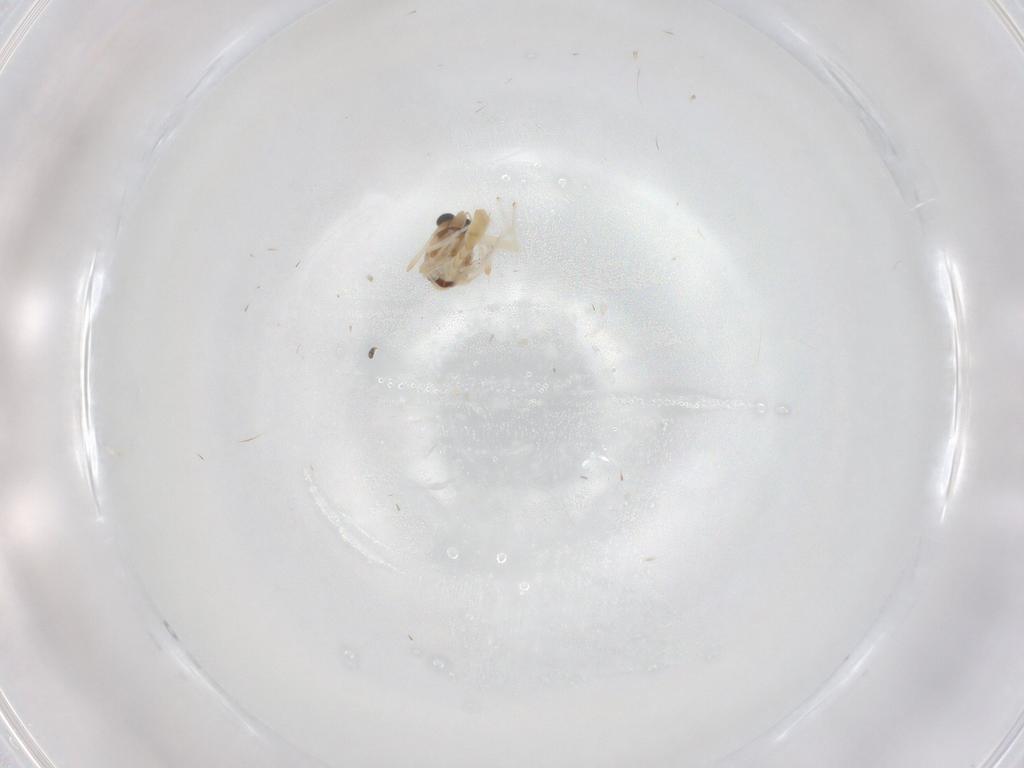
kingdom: Animalia
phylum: Arthropoda
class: Insecta
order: Diptera
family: Chironomidae
